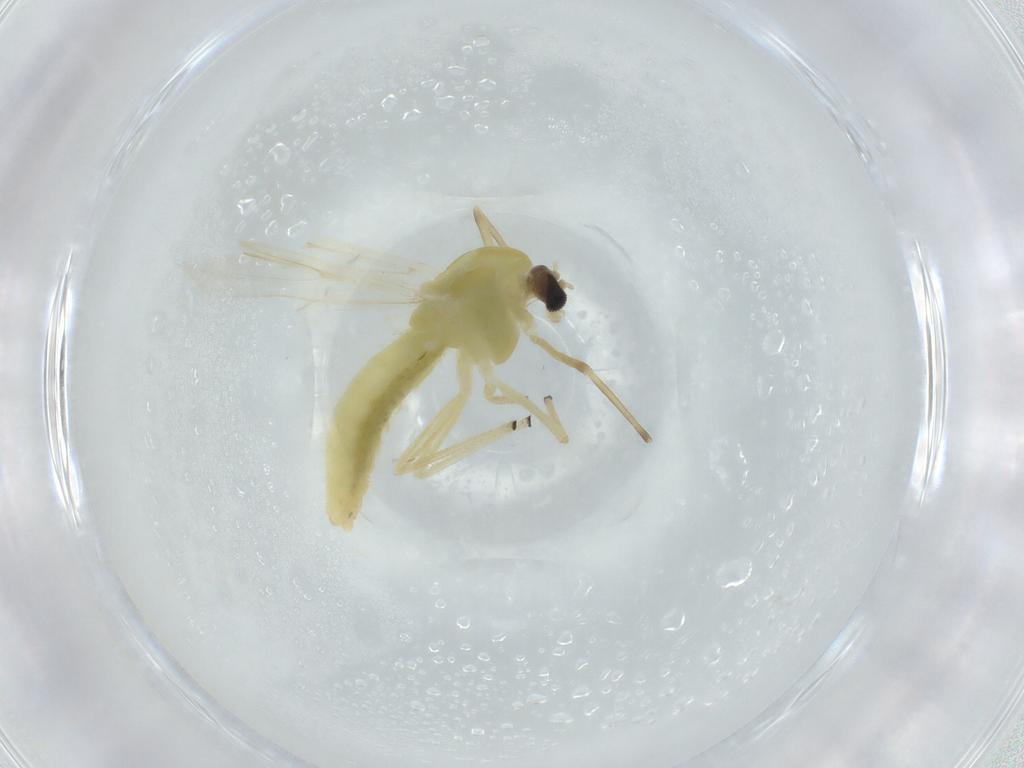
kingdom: Animalia
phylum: Arthropoda
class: Insecta
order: Diptera
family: Chironomidae
